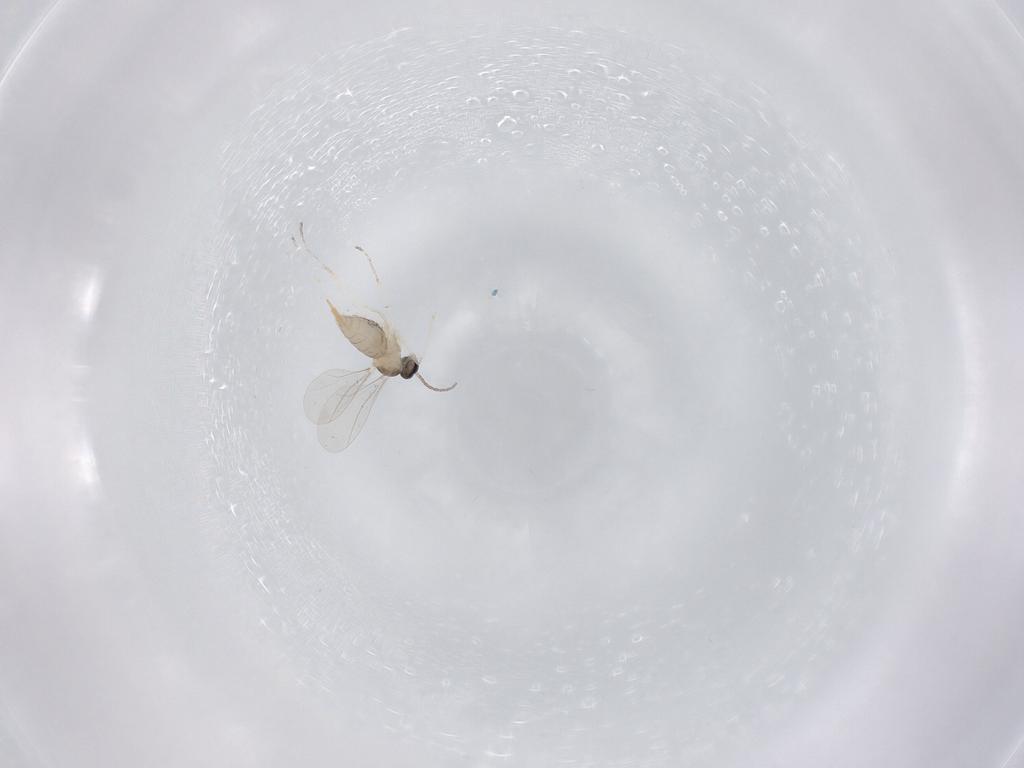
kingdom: Animalia
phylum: Arthropoda
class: Insecta
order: Diptera
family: Cecidomyiidae
